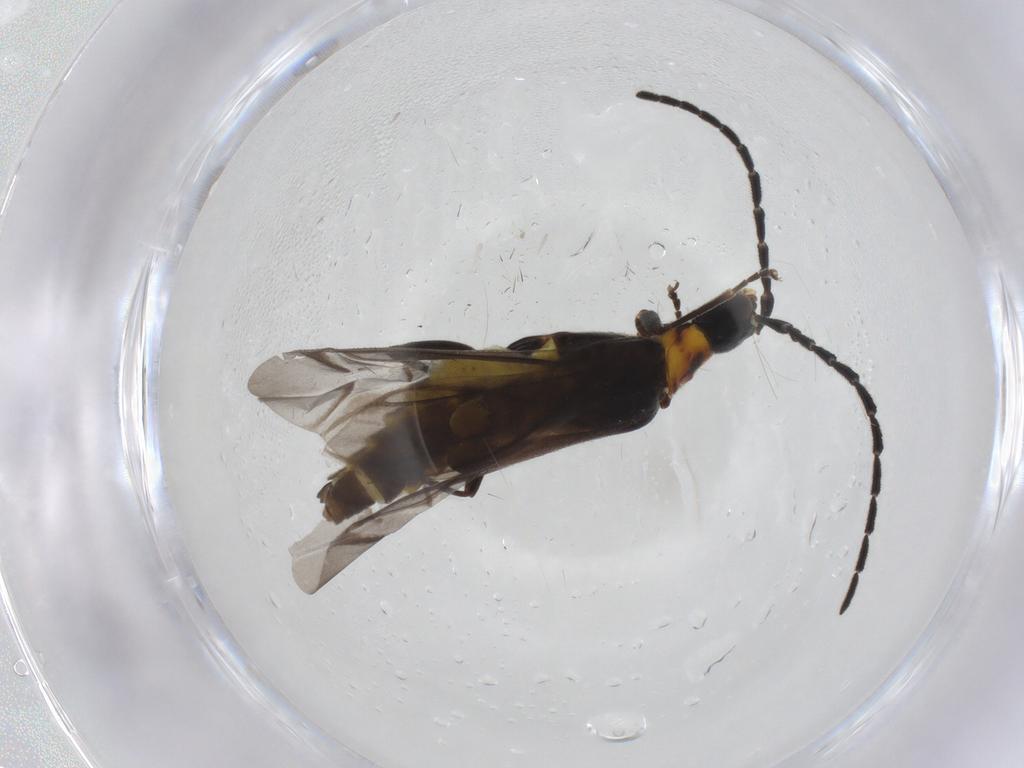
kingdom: Animalia
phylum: Arthropoda
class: Insecta
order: Coleoptera
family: Cantharidae
